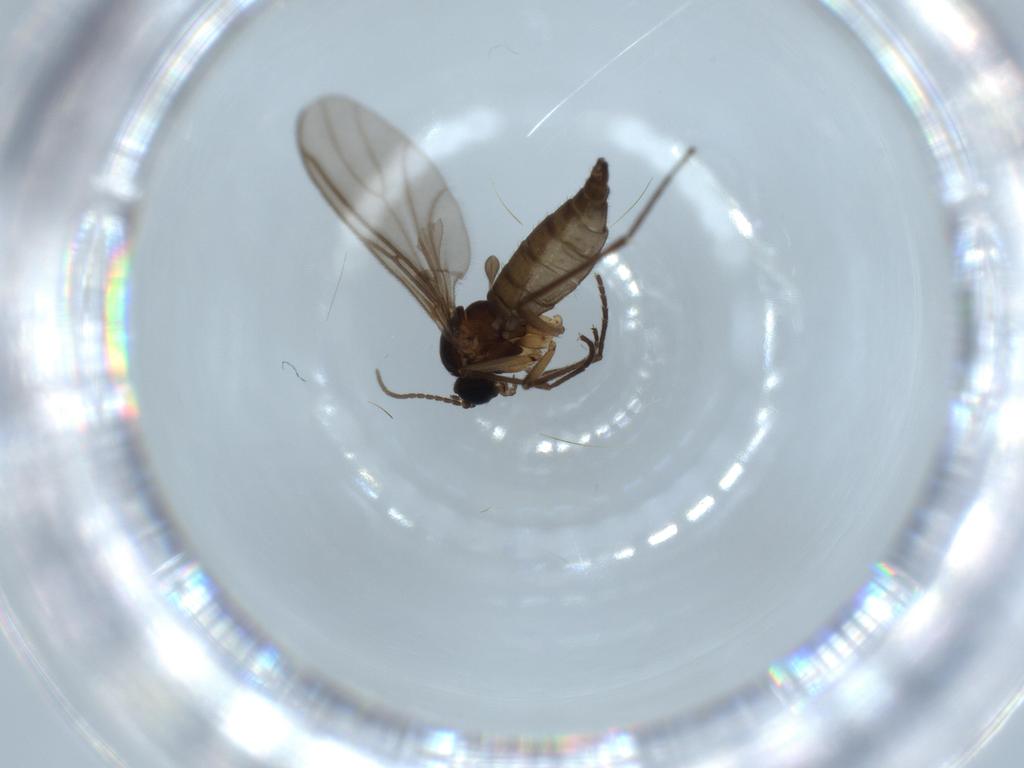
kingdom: Animalia
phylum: Arthropoda
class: Insecta
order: Diptera
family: Sciaridae
